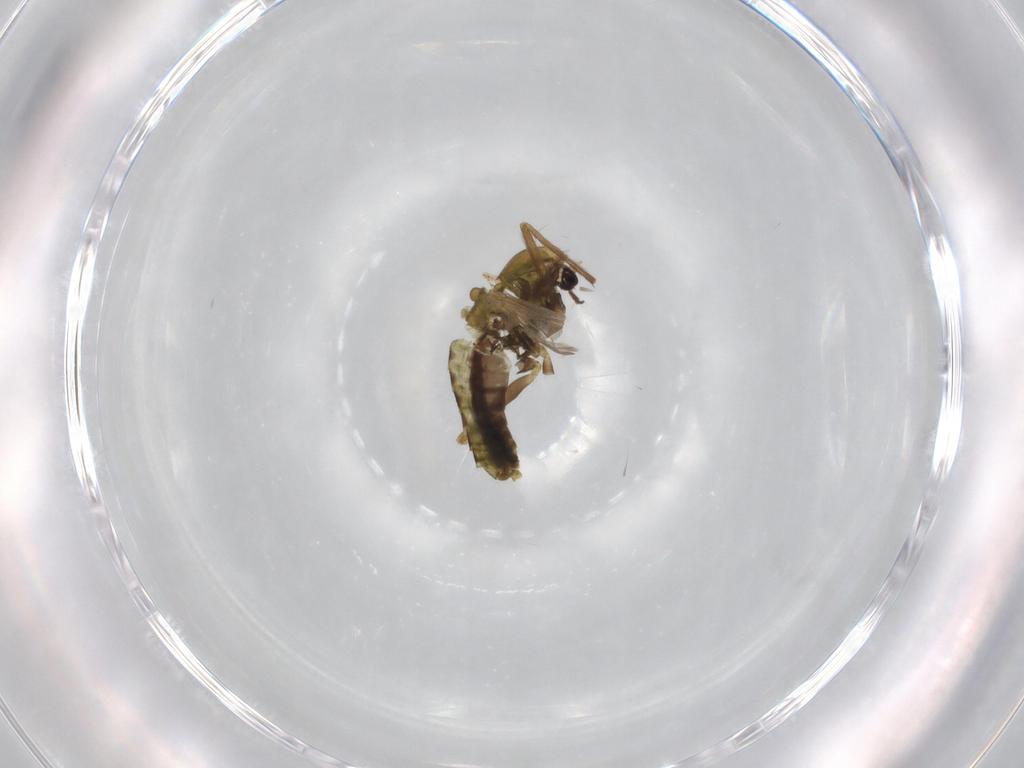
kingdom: Animalia
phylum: Arthropoda
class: Insecta
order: Diptera
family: Chironomidae
